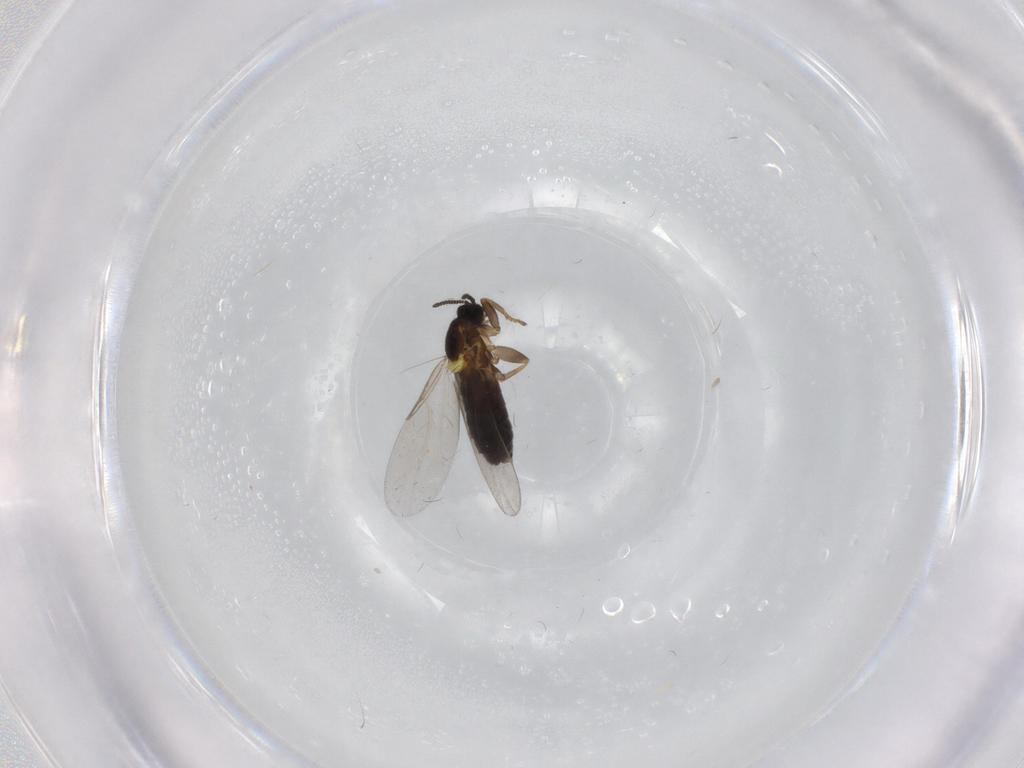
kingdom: Animalia
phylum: Arthropoda
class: Insecta
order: Diptera
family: Scatopsidae
